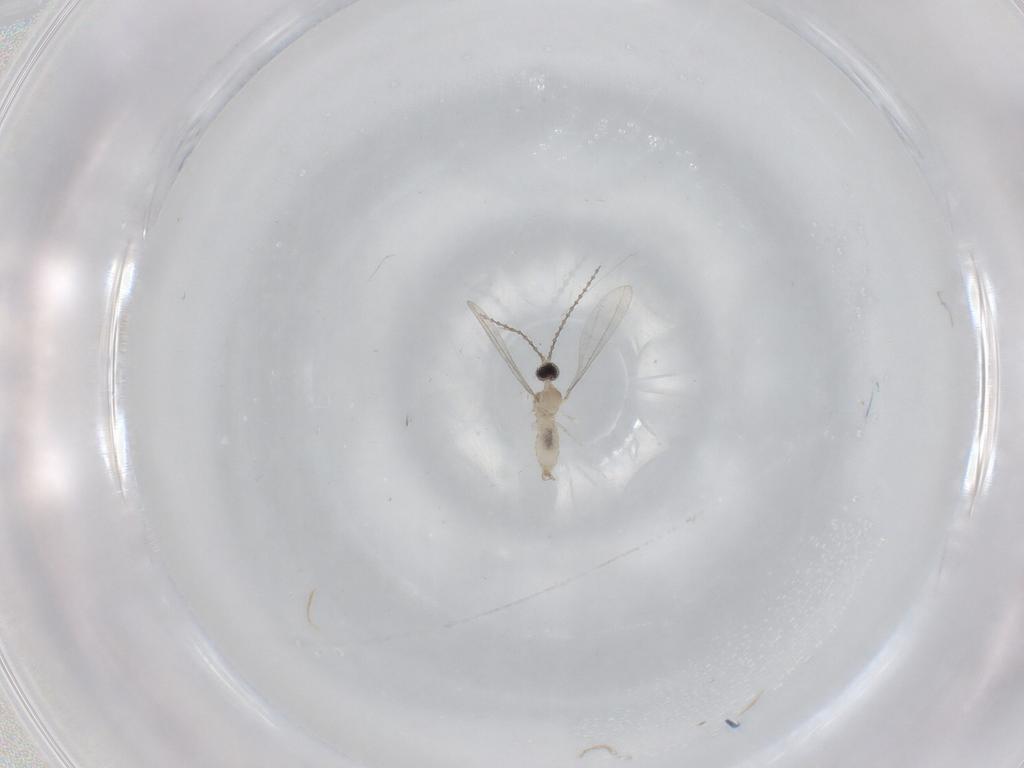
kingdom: Animalia
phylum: Arthropoda
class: Insecta
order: Diptera
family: Cecidomyiidae
